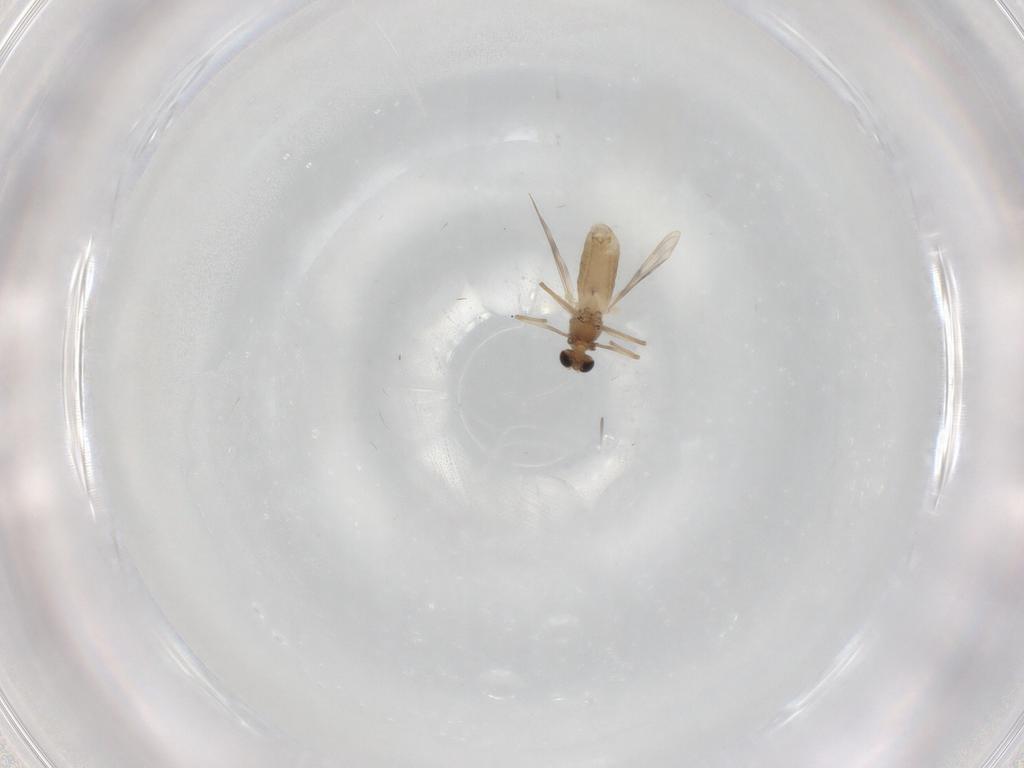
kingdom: Animalia
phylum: Arthropoda
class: Insecta
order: Diptera
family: Chironomidae
